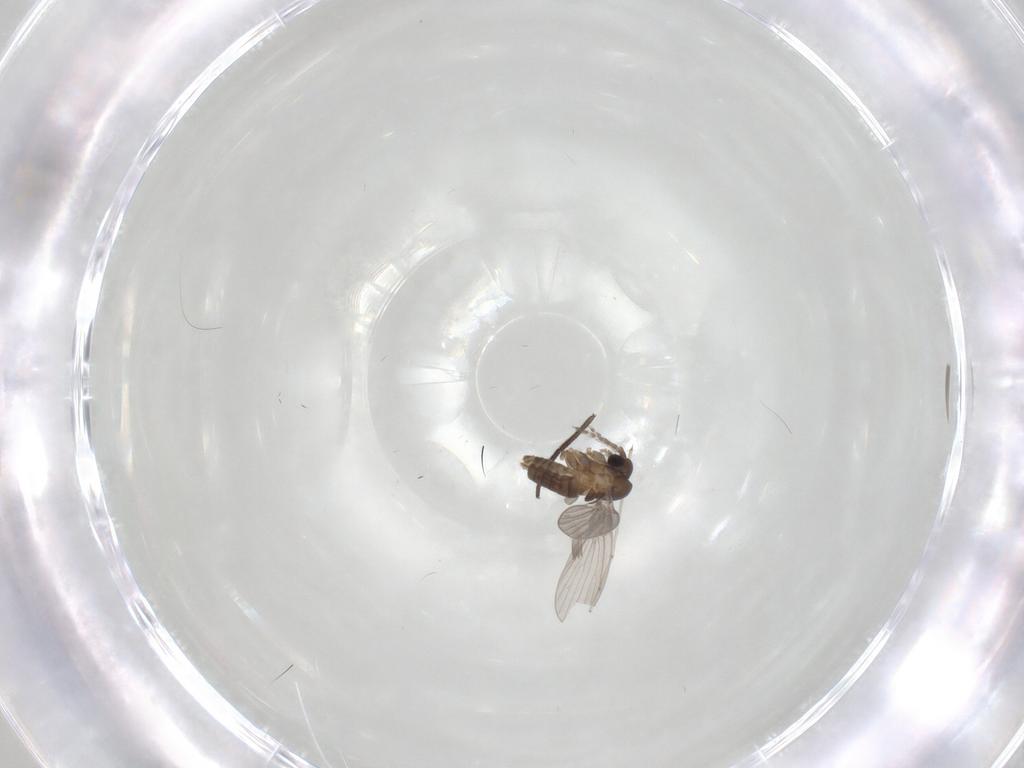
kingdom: Animalia
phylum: Arthropoda
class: Insecta
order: Diptera
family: Sciaridae
